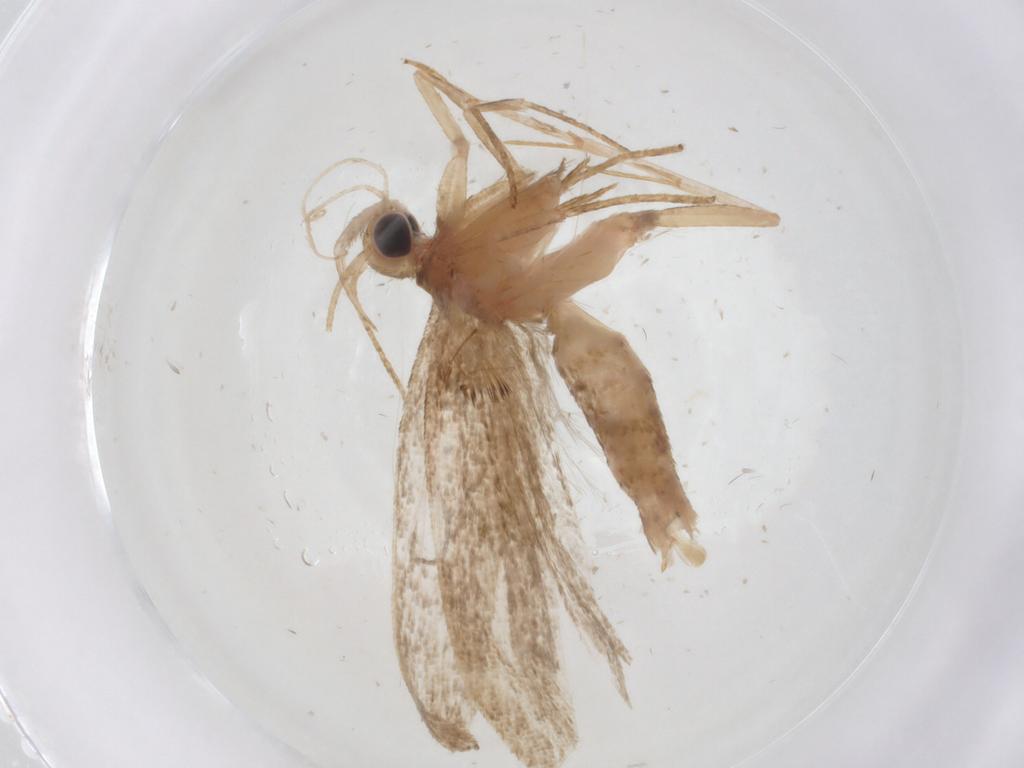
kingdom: Animalia
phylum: Arthropoda
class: Insecta
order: Lepidoptera
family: Gelechiidae
